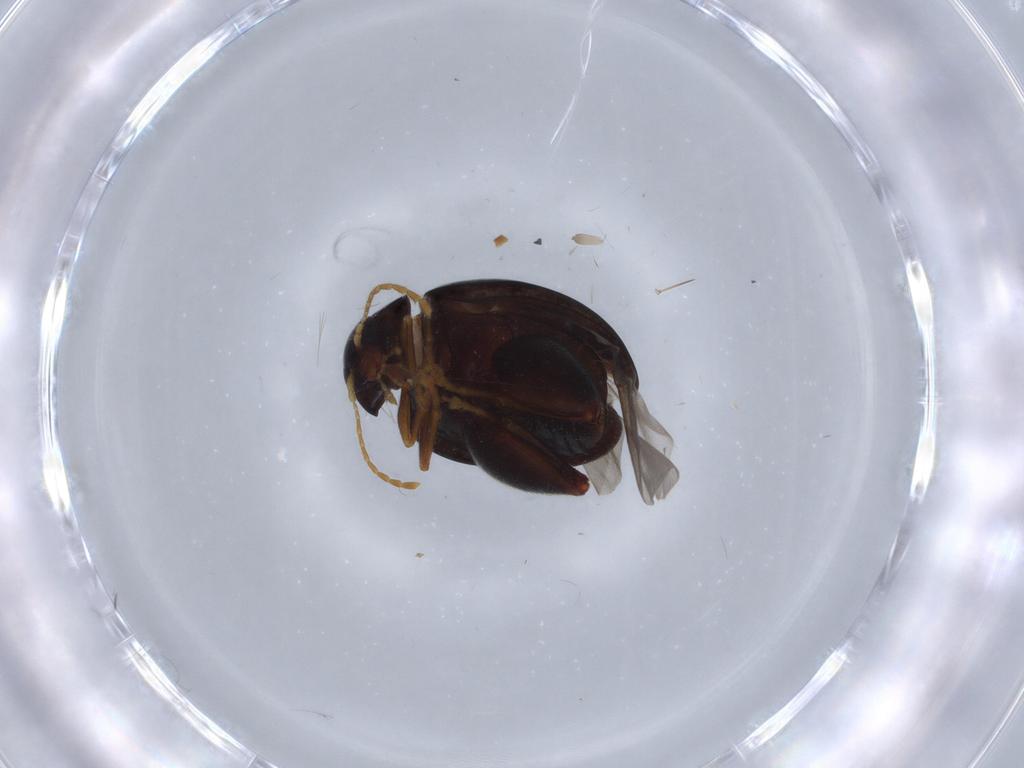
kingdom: Animalia
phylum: Arthropoda
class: Insecta
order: Coleoptera
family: Chrysomelidae
